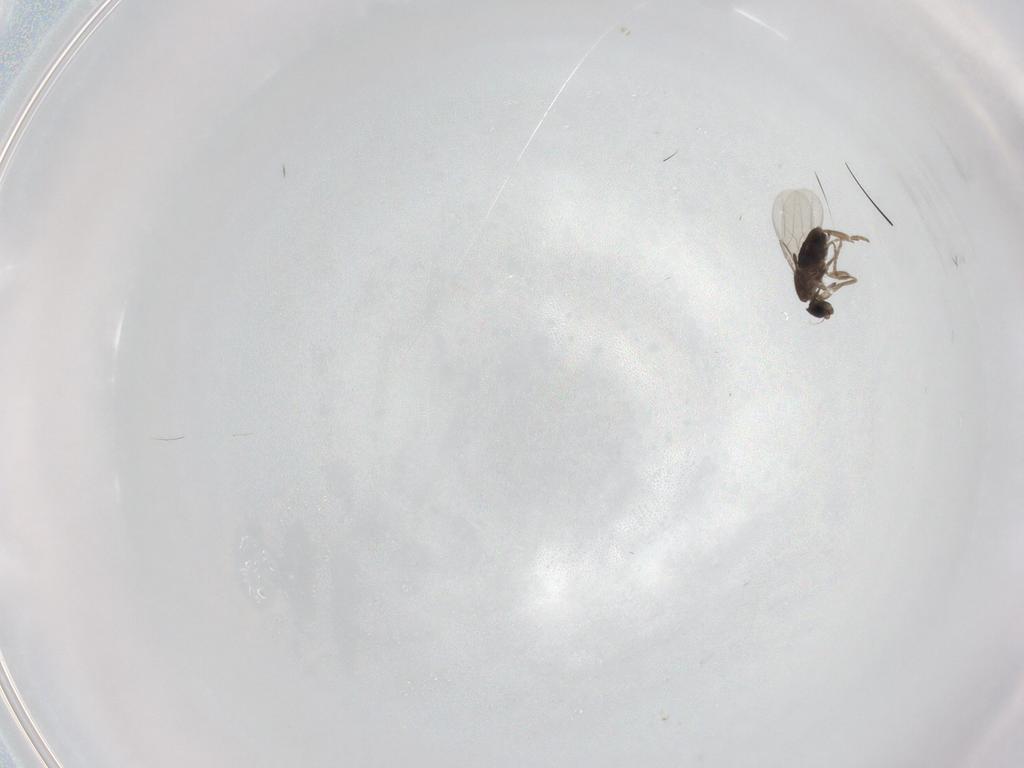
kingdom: Animalia
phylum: Arthropoda
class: Insecta
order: Diptera
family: Phoridae
